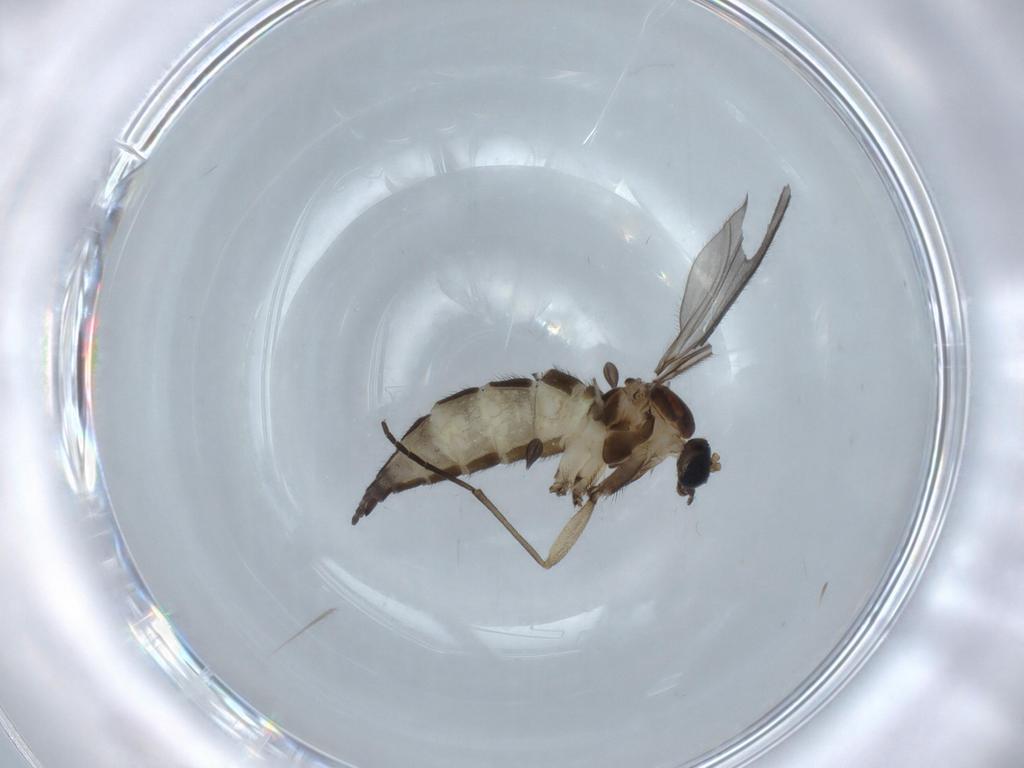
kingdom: Animalia
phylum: Arthropoda
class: Insecta
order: Diptera
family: Sciaridae
